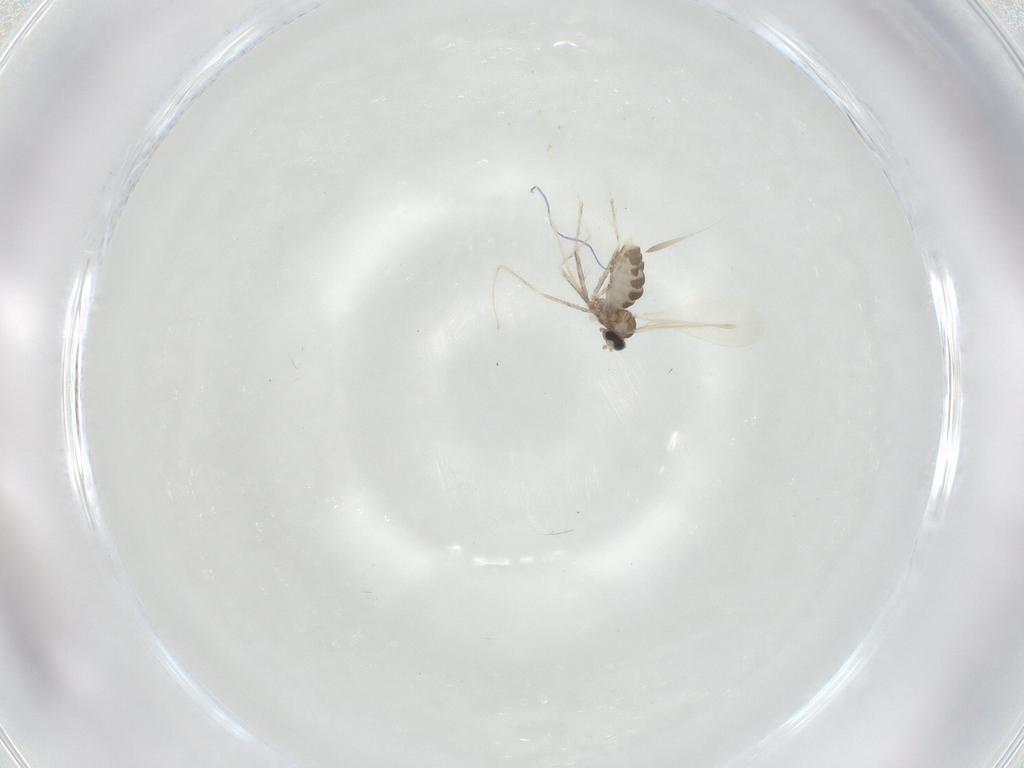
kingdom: Animalia
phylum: Arthropoda
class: Insecta
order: Diptera
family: Cecidomyiidae
